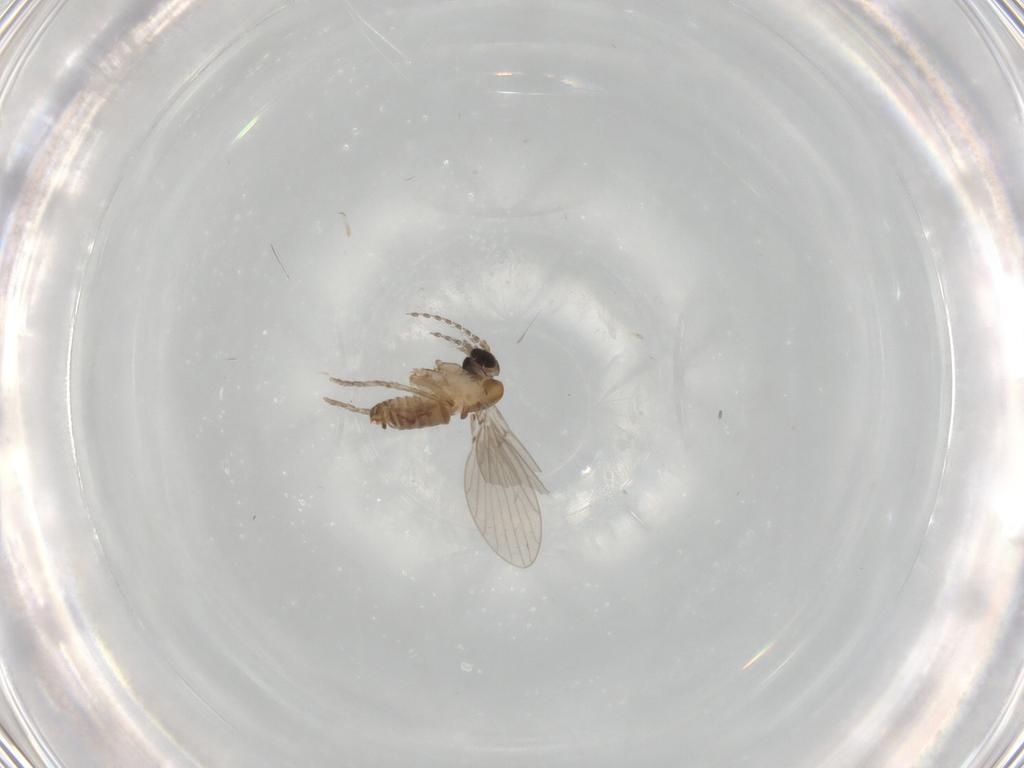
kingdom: Animalia
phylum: Arthropoda
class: Insecta
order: Diptera
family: Psychodidae
